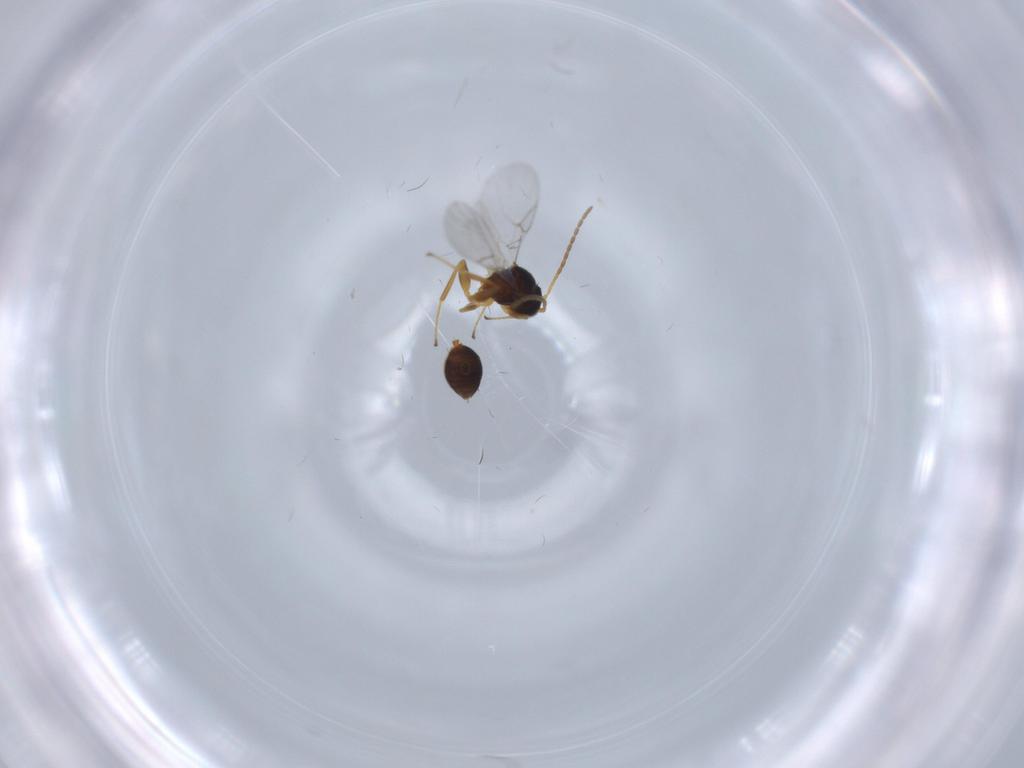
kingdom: Animalia
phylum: Arthropoda
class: Insecta
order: Hymenoptera
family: Figitidae
